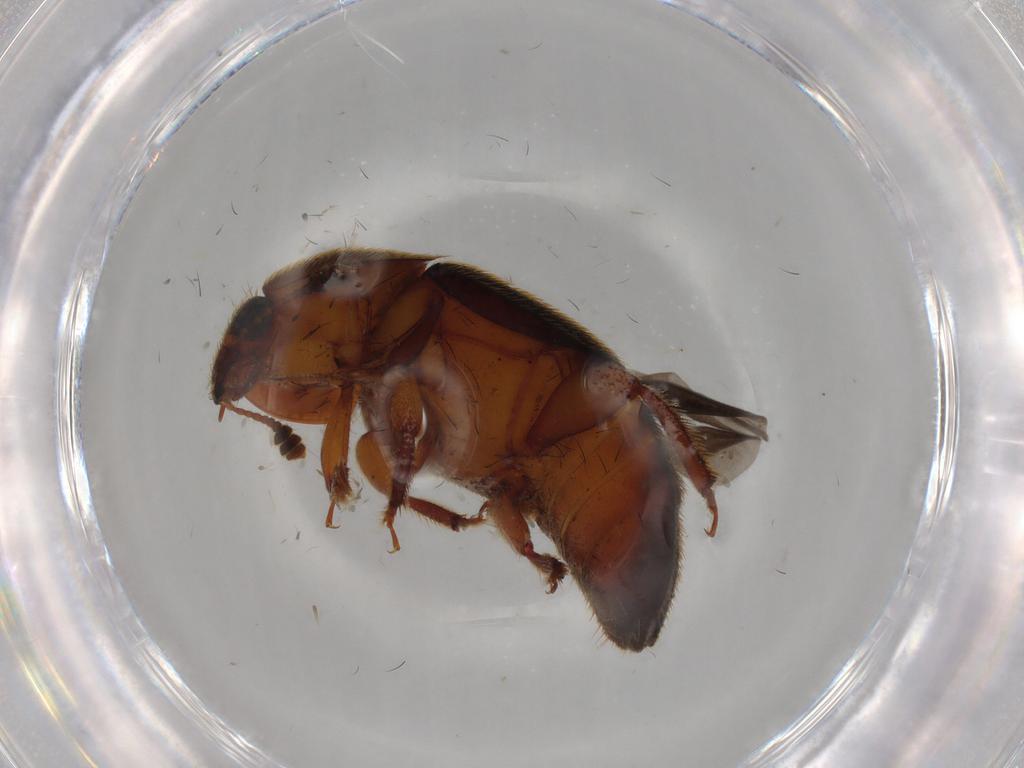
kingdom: Animalia
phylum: Arthropoda
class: Insecta
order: Coleoptera
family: Nitidulidae
